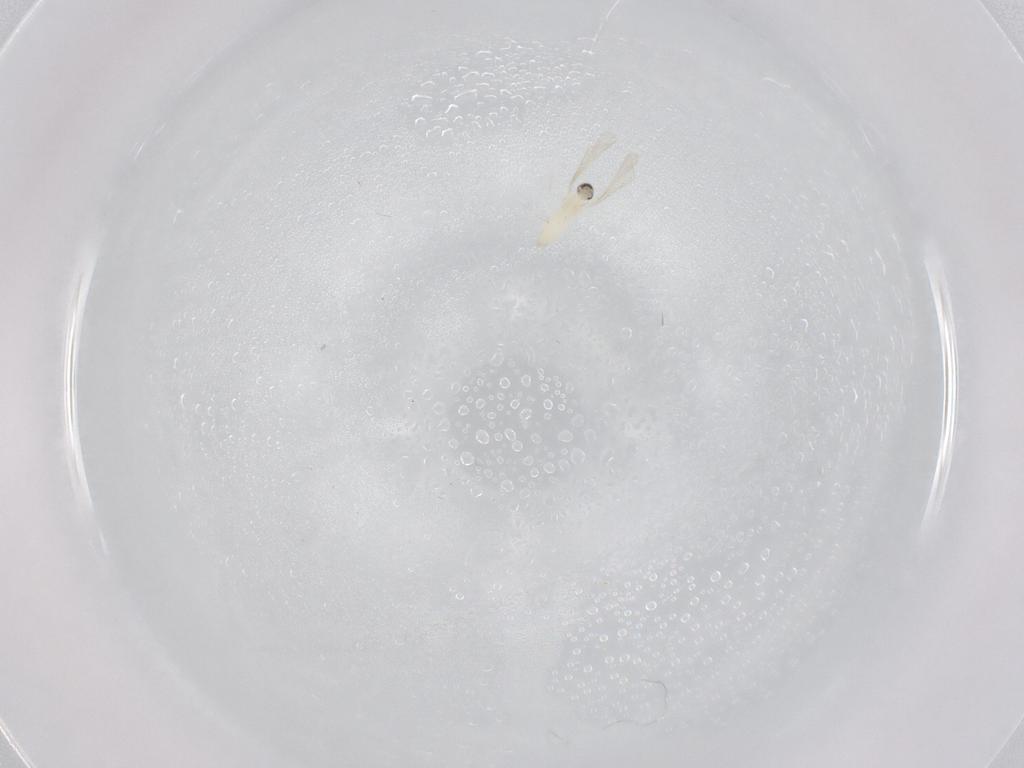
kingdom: Animalia
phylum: Arthropoda
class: Insecta
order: Diptera
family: Cecidomyiidae
